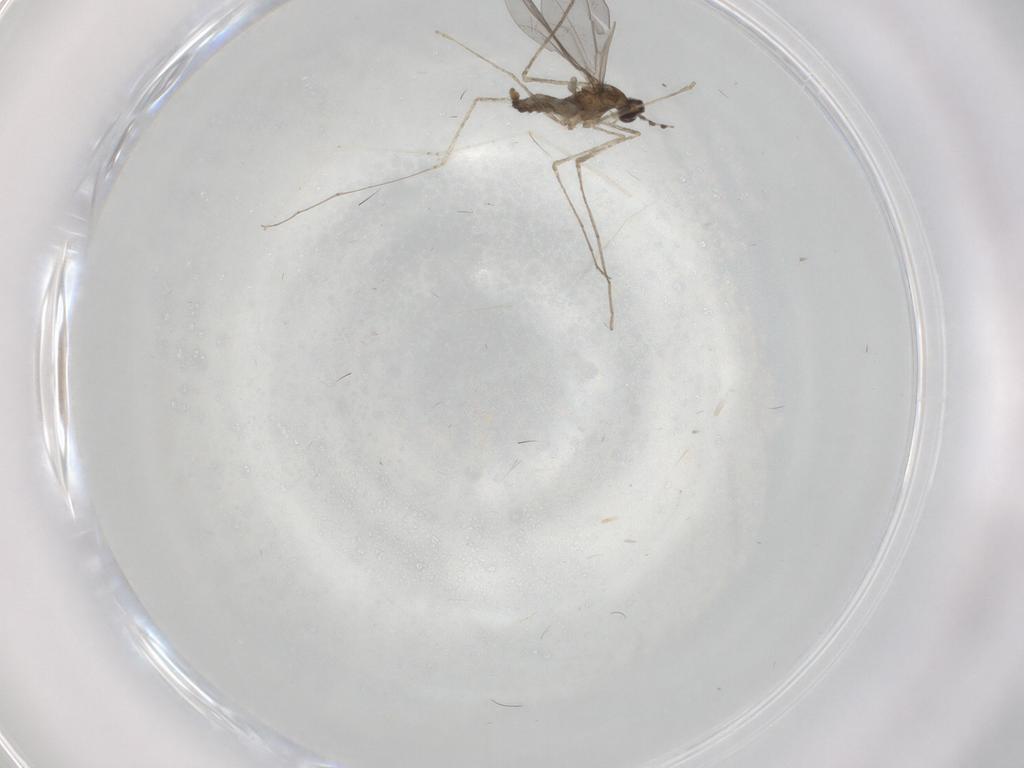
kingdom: Animalia
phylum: Arthropoda
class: Insecta
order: Diptera
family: Cecidomyiidae
